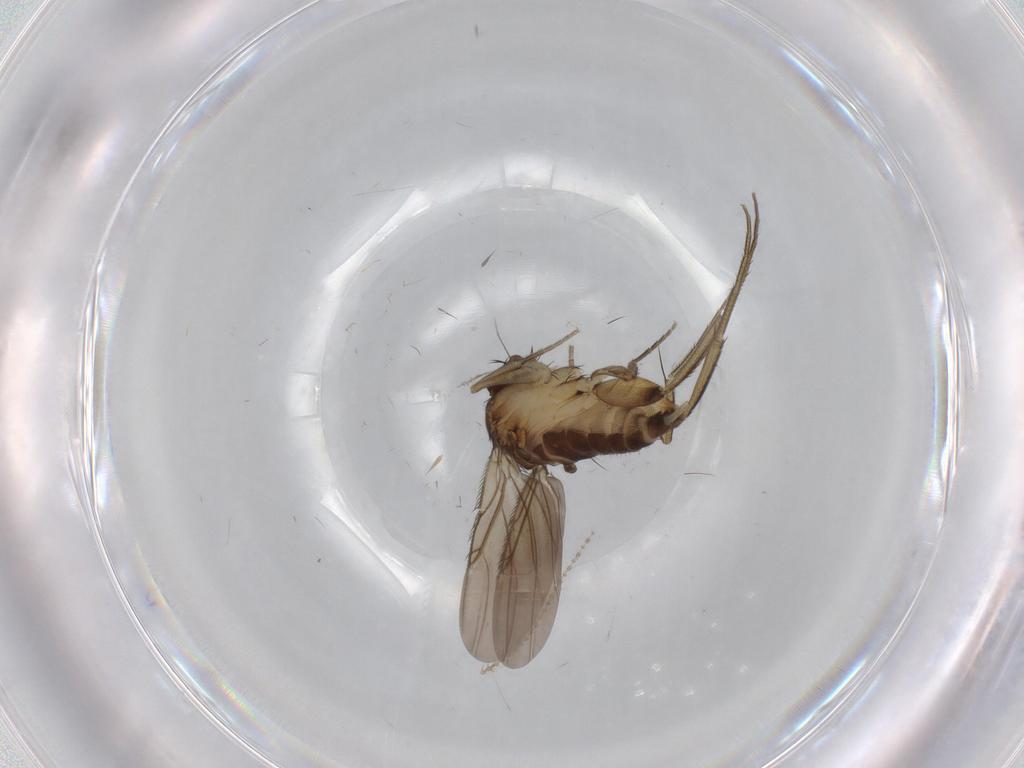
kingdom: Animalia
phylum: Arthropoda
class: Insecta
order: Diptera
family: Phoridae
